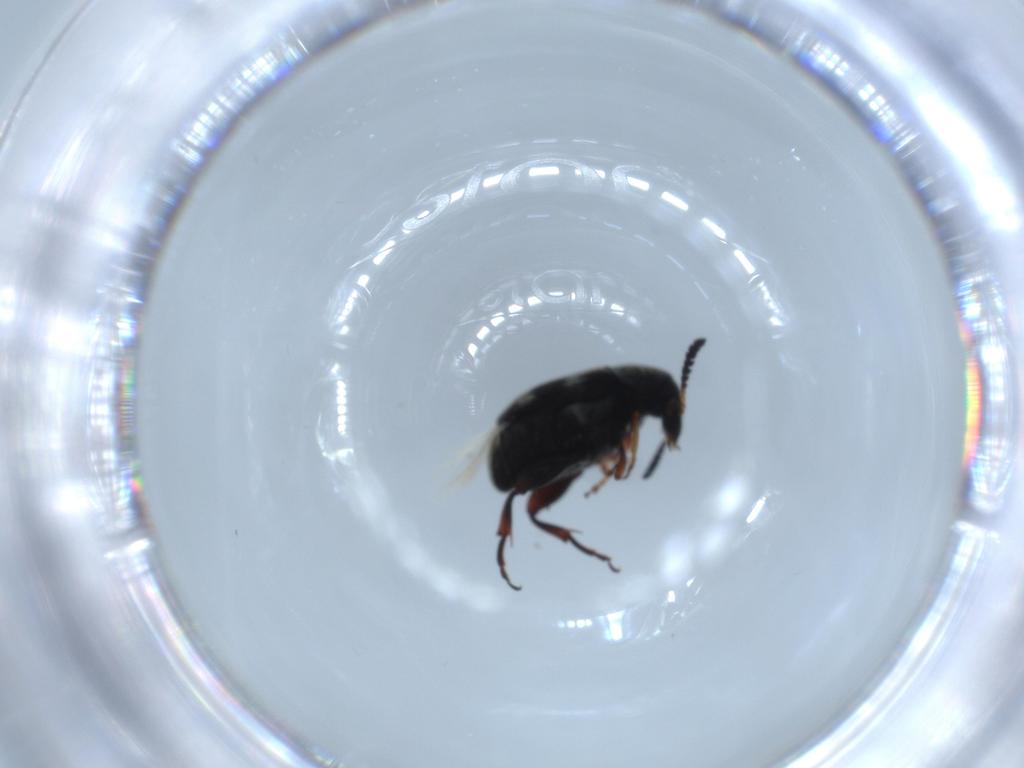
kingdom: Animalia
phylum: Arthropoda
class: Insecta
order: Coleoptera
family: Chrysomelidae
